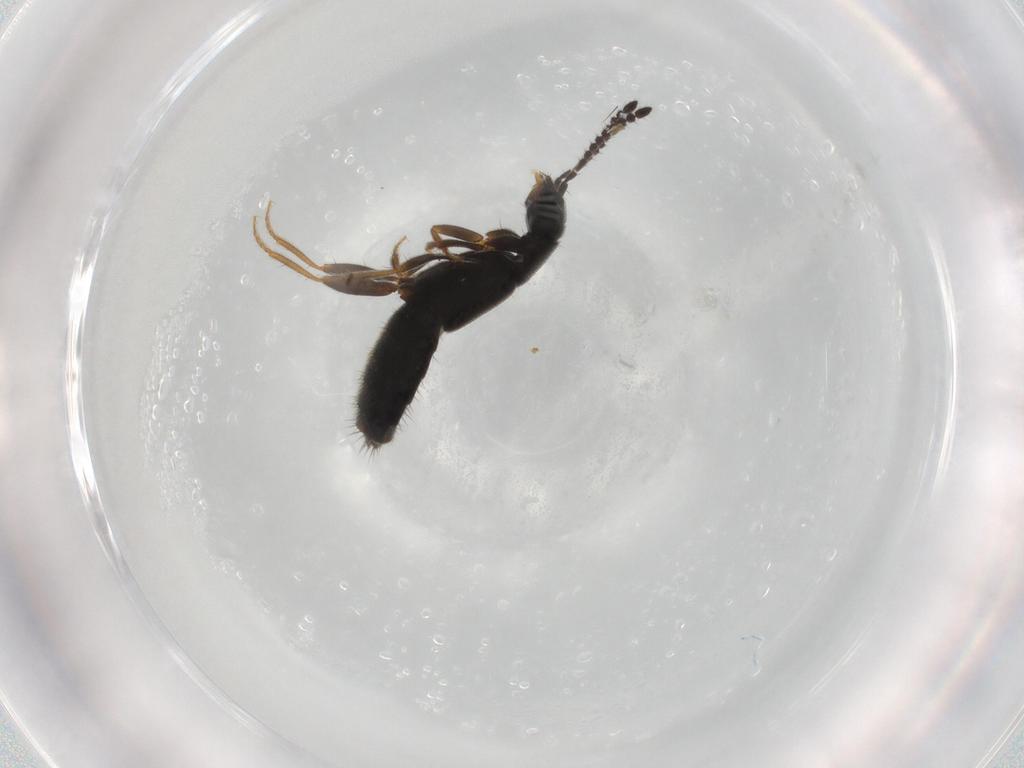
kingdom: Animalia
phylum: Arthropoda
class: Insecta
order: Coleoptera
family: Staphylinidae
